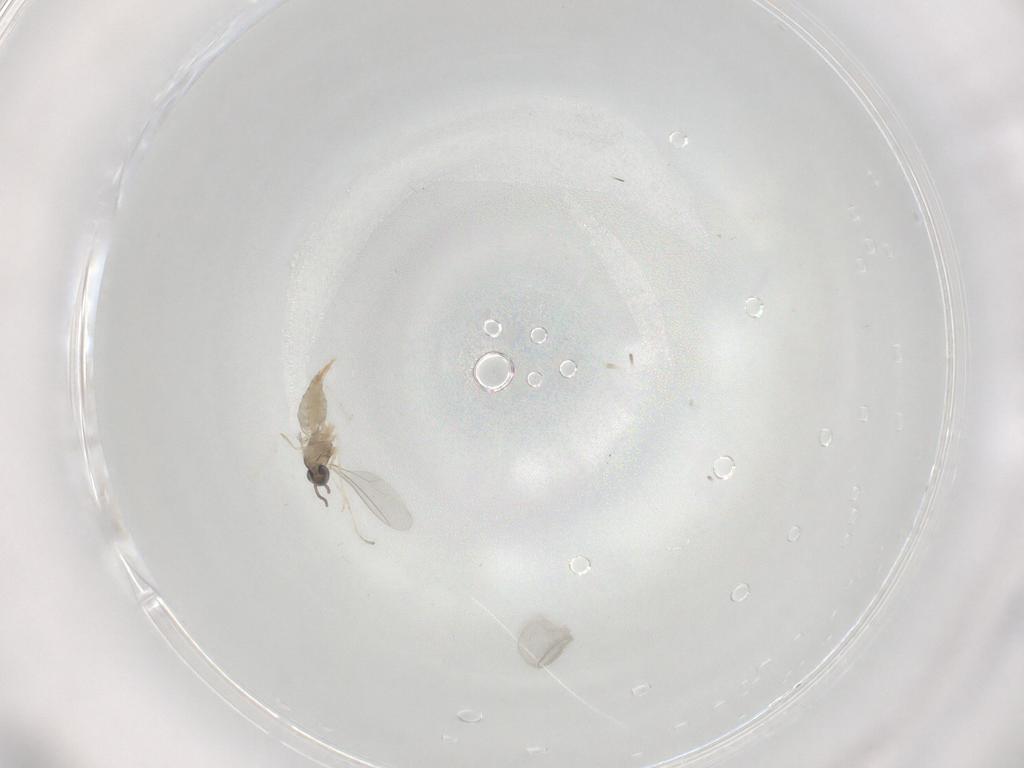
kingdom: Animalia
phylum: Arthropoda
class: Insecta
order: Diptera
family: Cecidomyiidae
